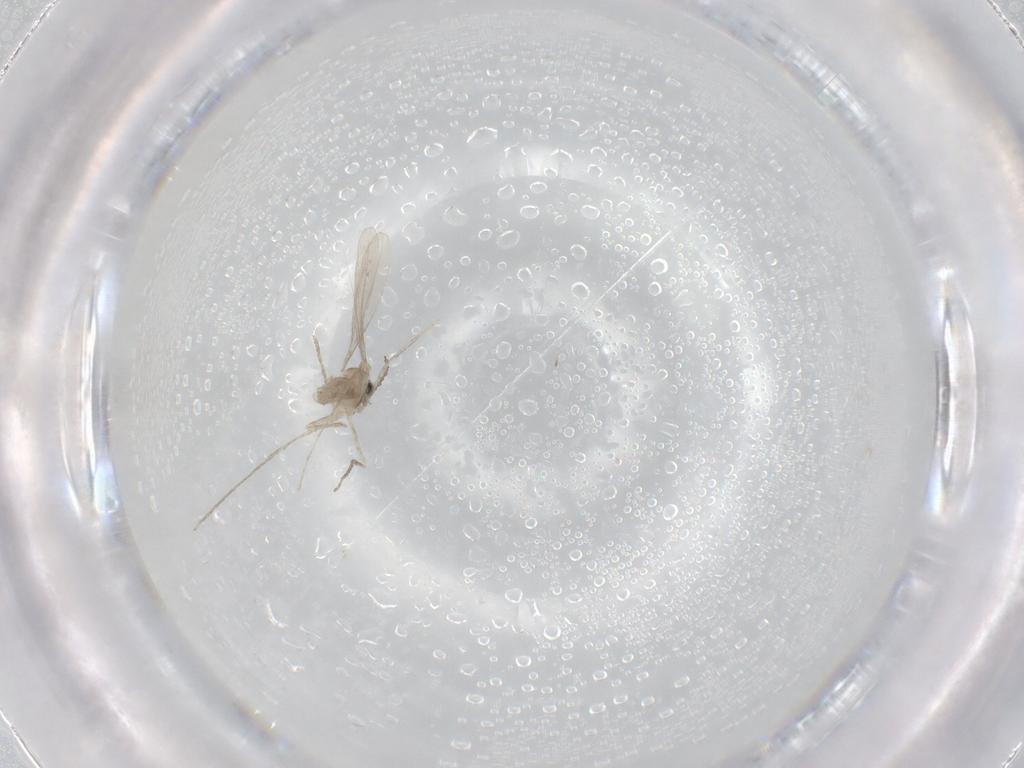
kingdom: Animalia
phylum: Arthropoda
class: Insecta
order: Diptera
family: Cecidomyiidae
